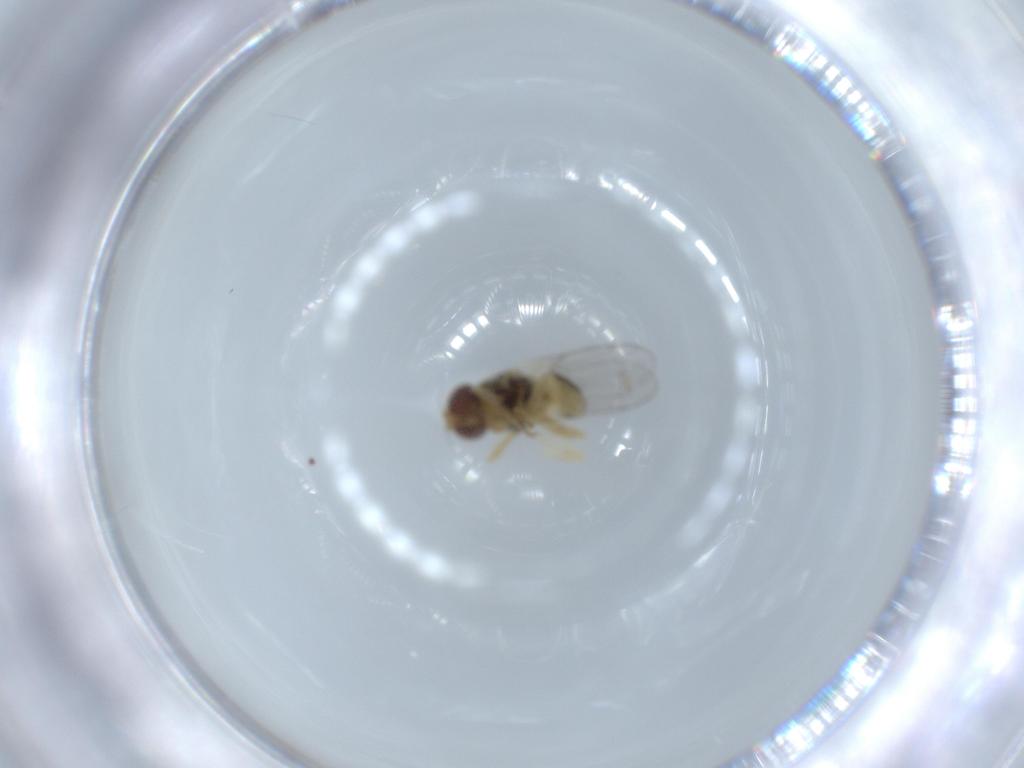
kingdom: Animalia
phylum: Arthropoda
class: Insecta
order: Diptera
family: Chloropidae
